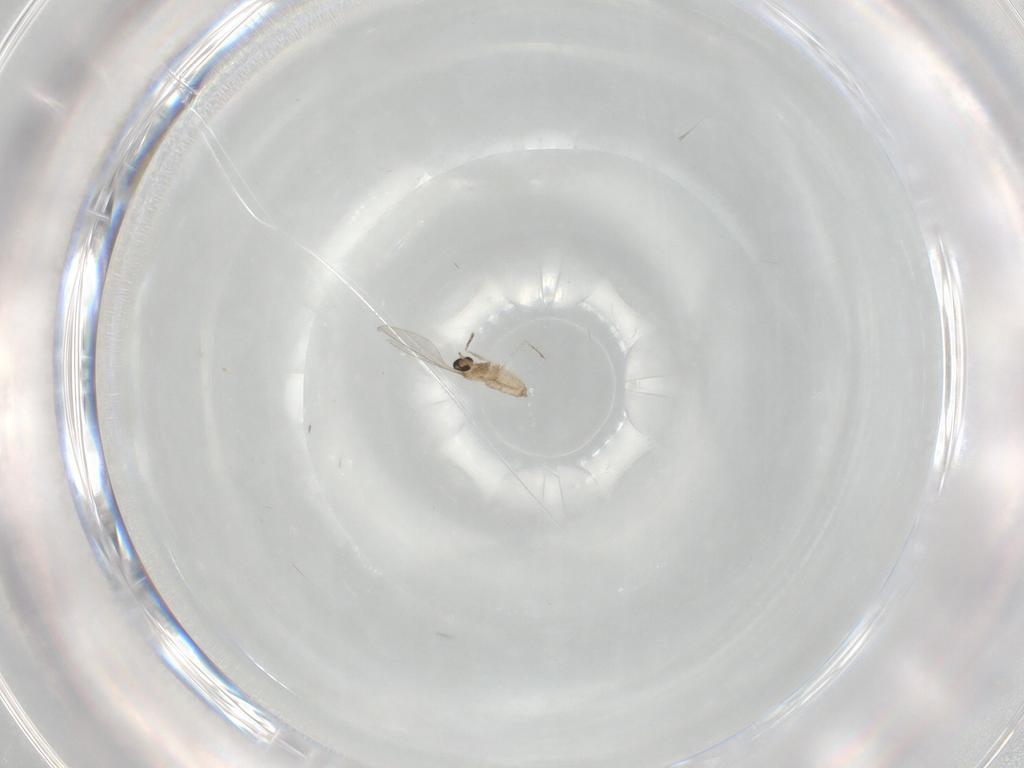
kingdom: Animalia
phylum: Arthropoda
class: Insecta
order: Diptera
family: Cecidomyiidae
